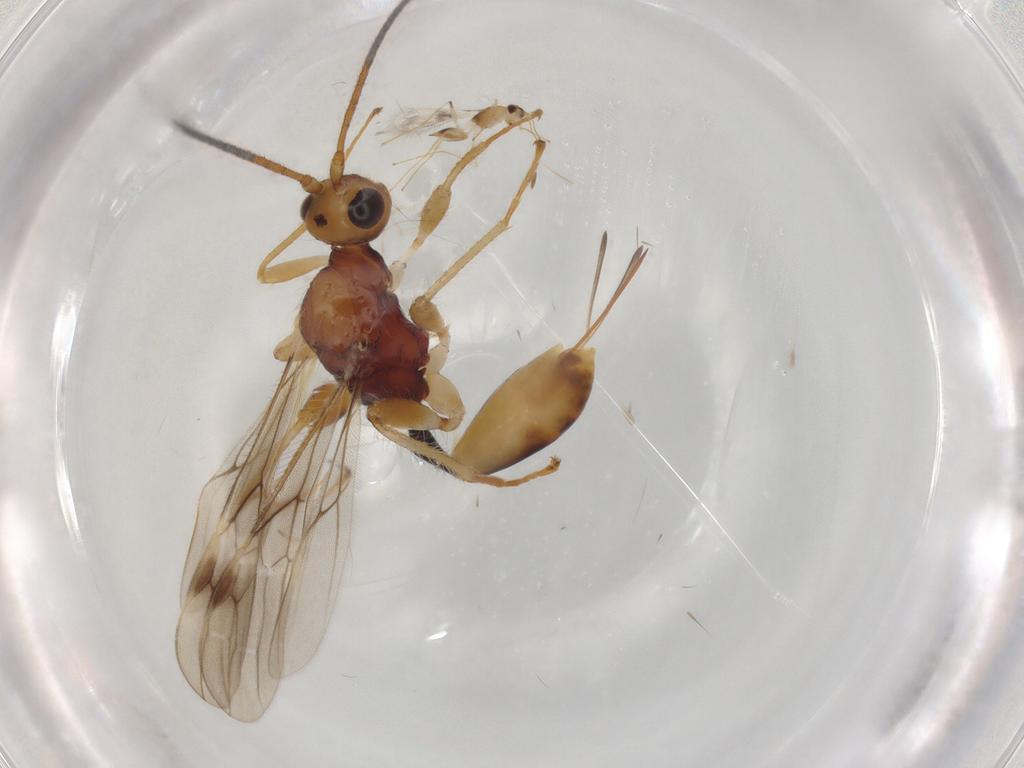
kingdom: Animalia
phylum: Arthropoda
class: Insecta
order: Hymenoptera
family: Braconidae
